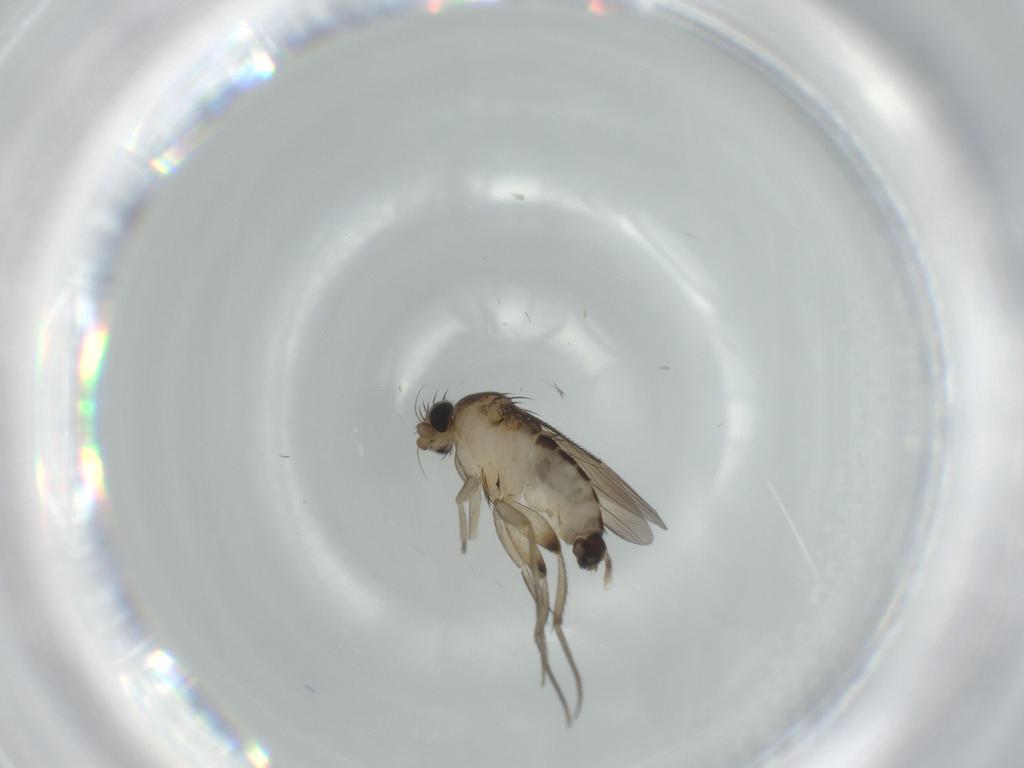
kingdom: Animalia
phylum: Arthropoda
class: Insecta
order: Diptera
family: Phoridae
